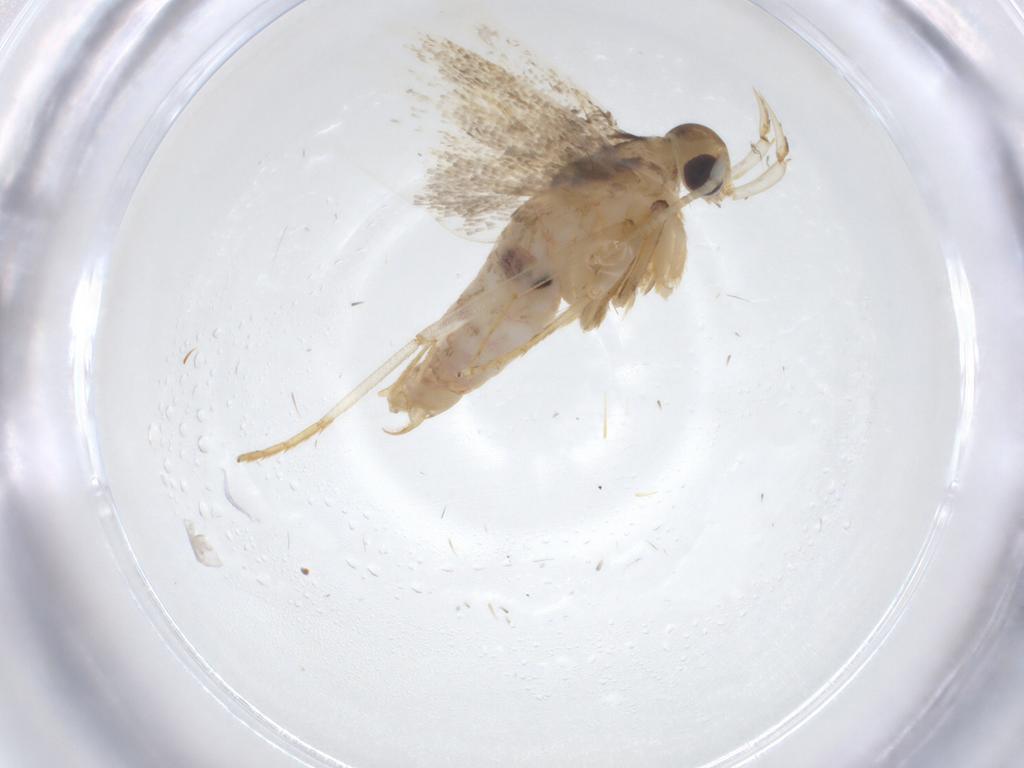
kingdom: Animalia
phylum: Arthropoda
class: Insecta
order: Lepidoptera
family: Lecithoceridae
